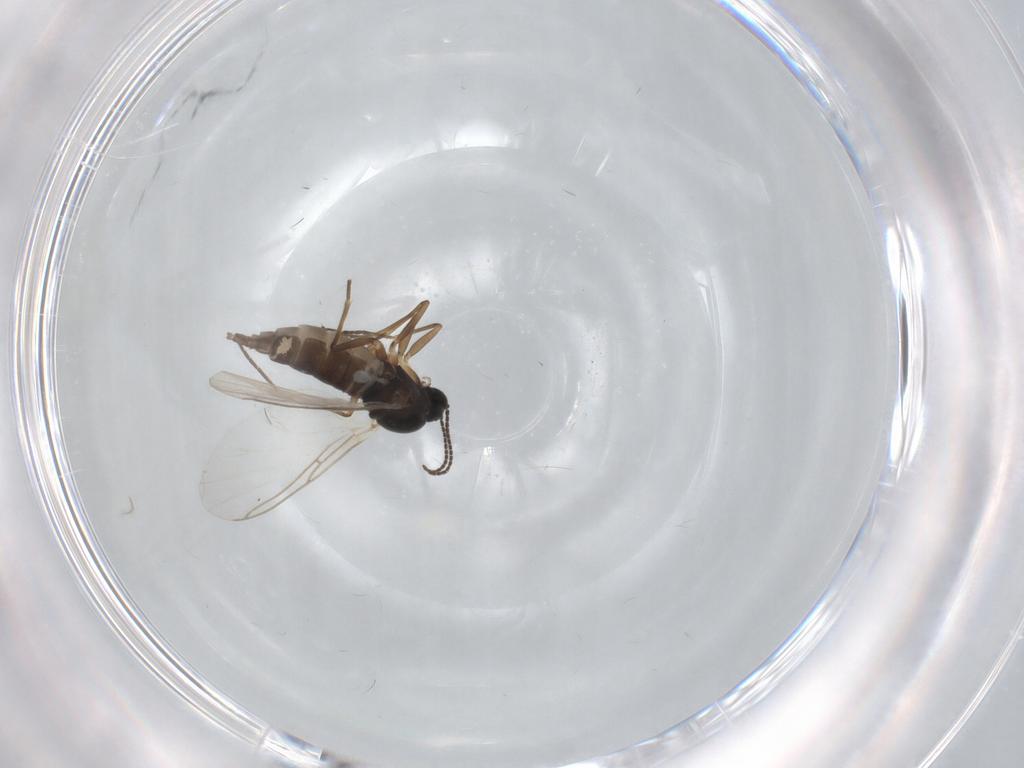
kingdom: Animalia
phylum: Arthropoda
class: Insecta
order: Diptera
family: Sciaridae
